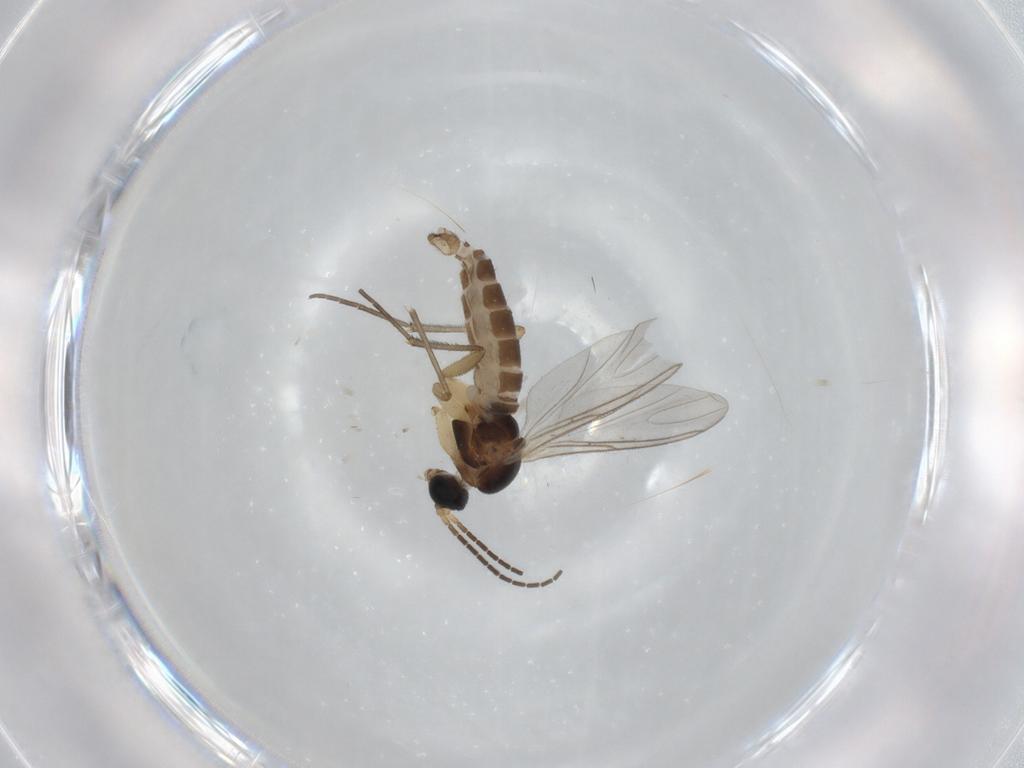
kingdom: Animalia
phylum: Arthropoda
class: Insecta
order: Diptera
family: Sciaridae
